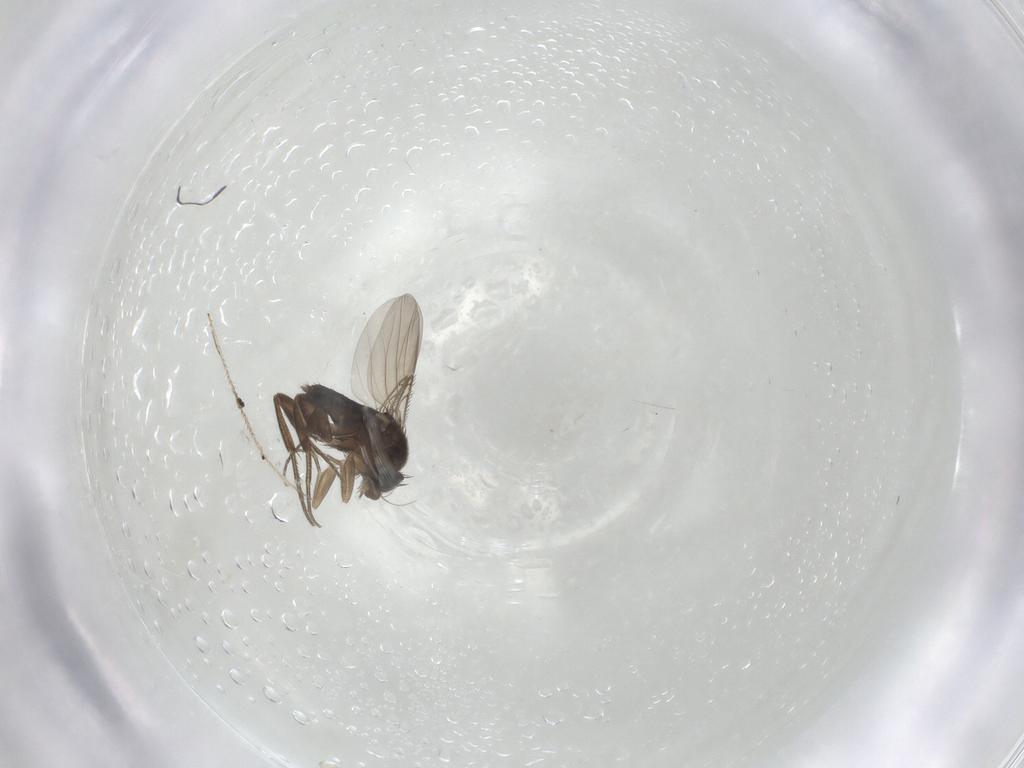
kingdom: Animalia
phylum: Arthropoda
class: Insecta
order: Diptera
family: Phoridae
